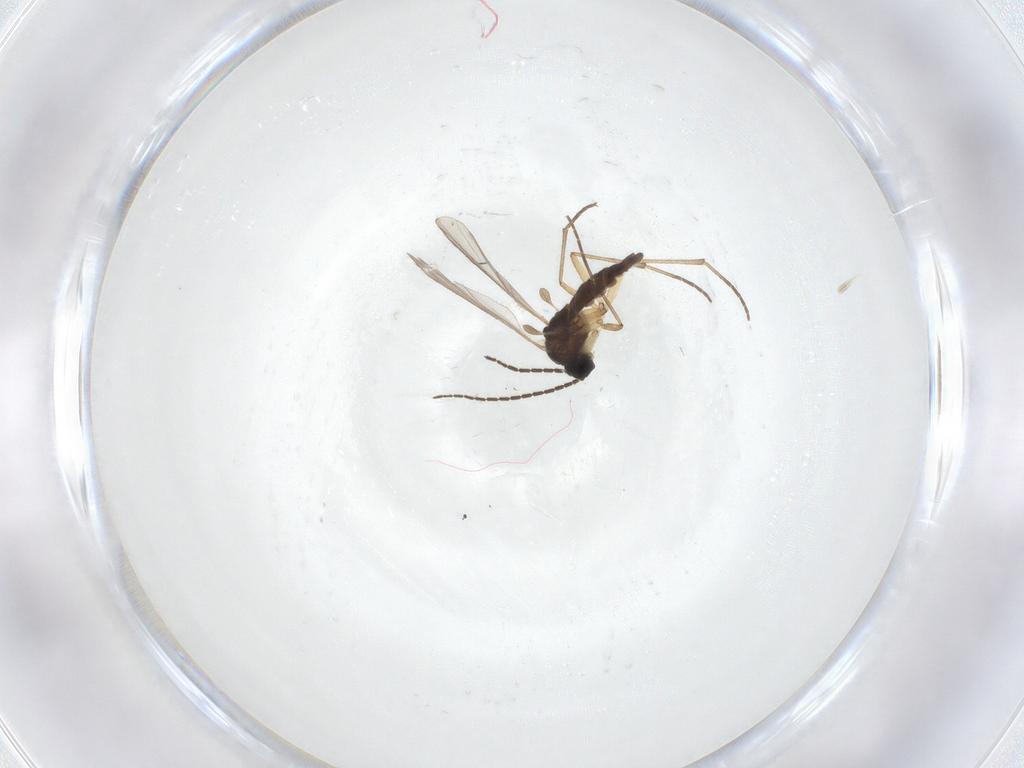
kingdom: Animalia
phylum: Arthropoda
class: Insecta
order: Diptera
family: Sciaridae
